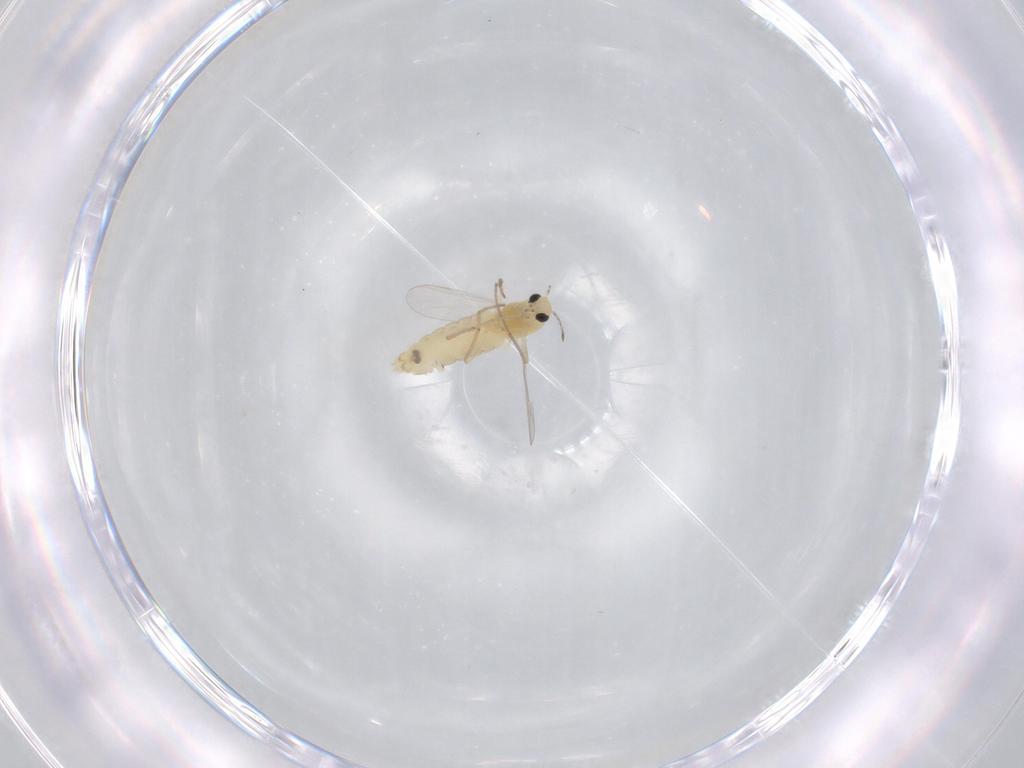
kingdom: Animalia
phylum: Arthropoda
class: Insecta
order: Diptera
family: Chironomidae
